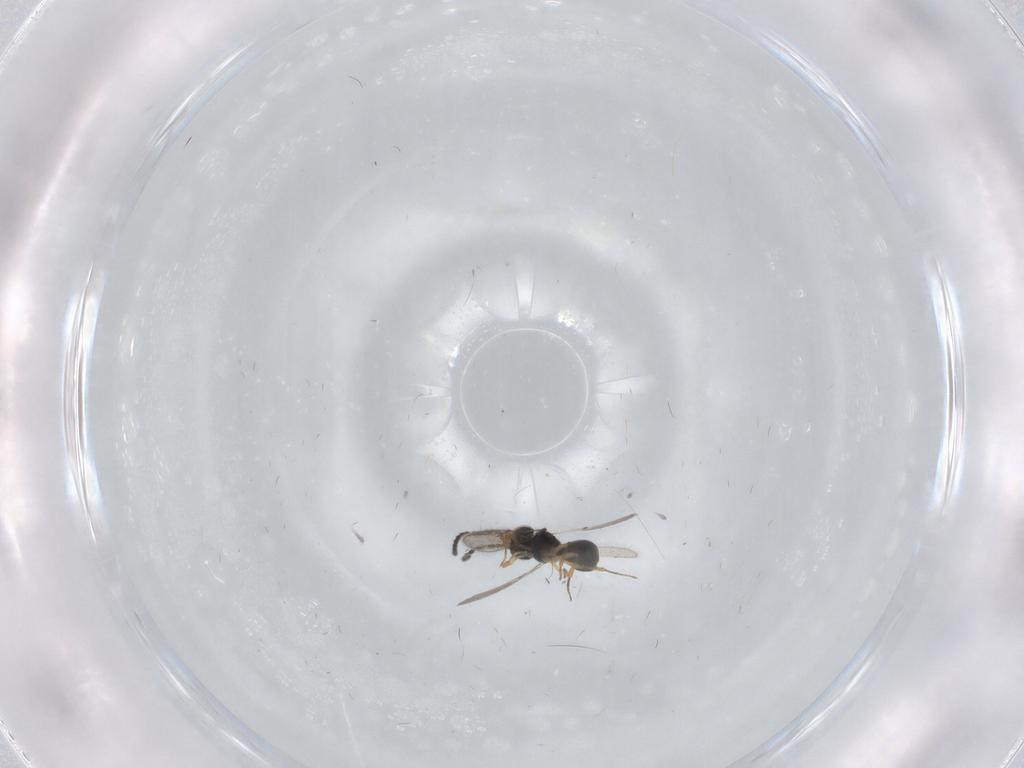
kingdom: Animalia
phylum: Arthropoda
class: Insecta
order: Hymenoptera
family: Scelionidae
